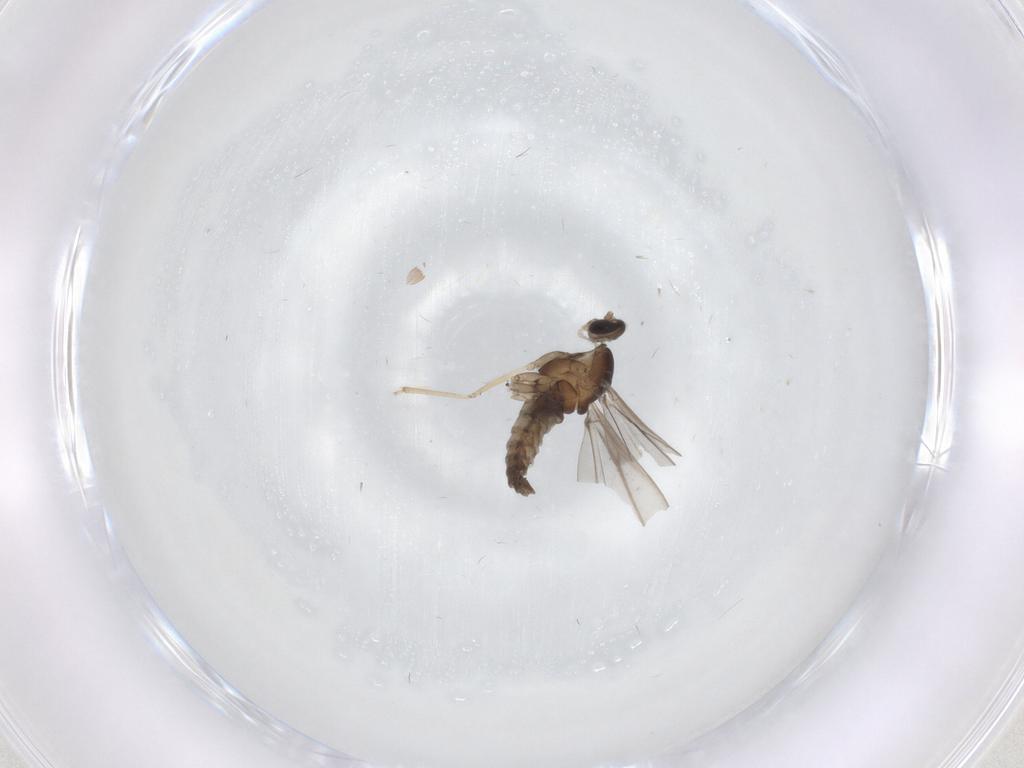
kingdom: Animalia
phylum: Arthropoda
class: Insecta
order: Diptera
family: Cecidomyiidae
